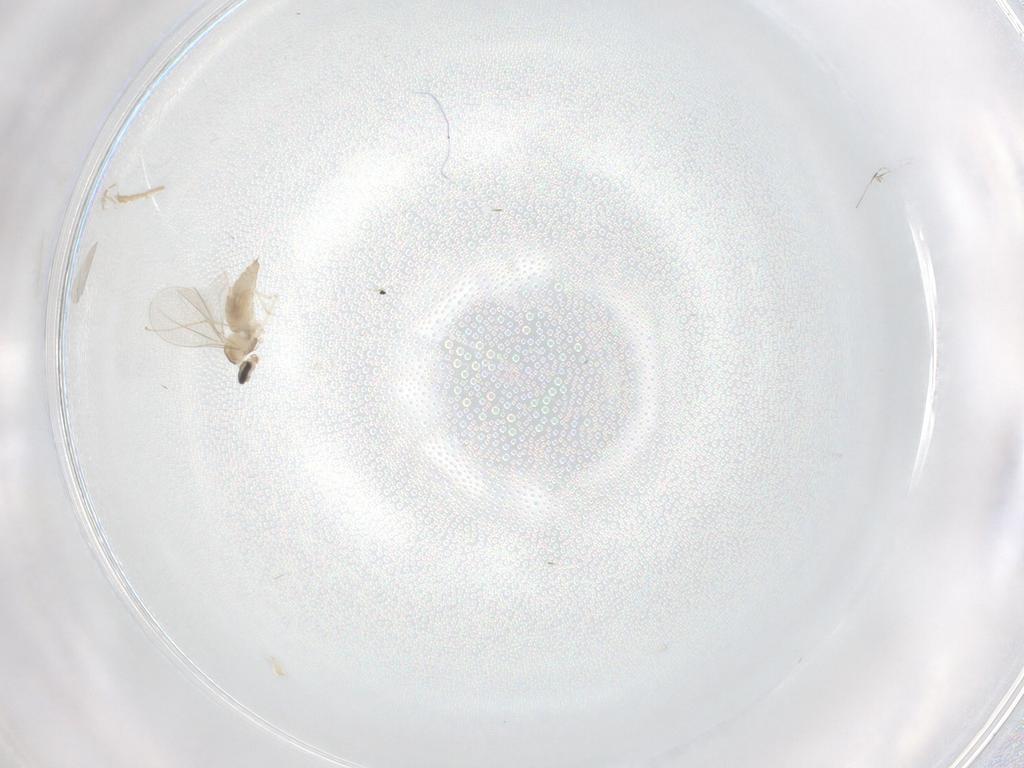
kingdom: Animalia
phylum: Arthropoda
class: Insecta
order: Diptera
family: Cecidomyiidae
